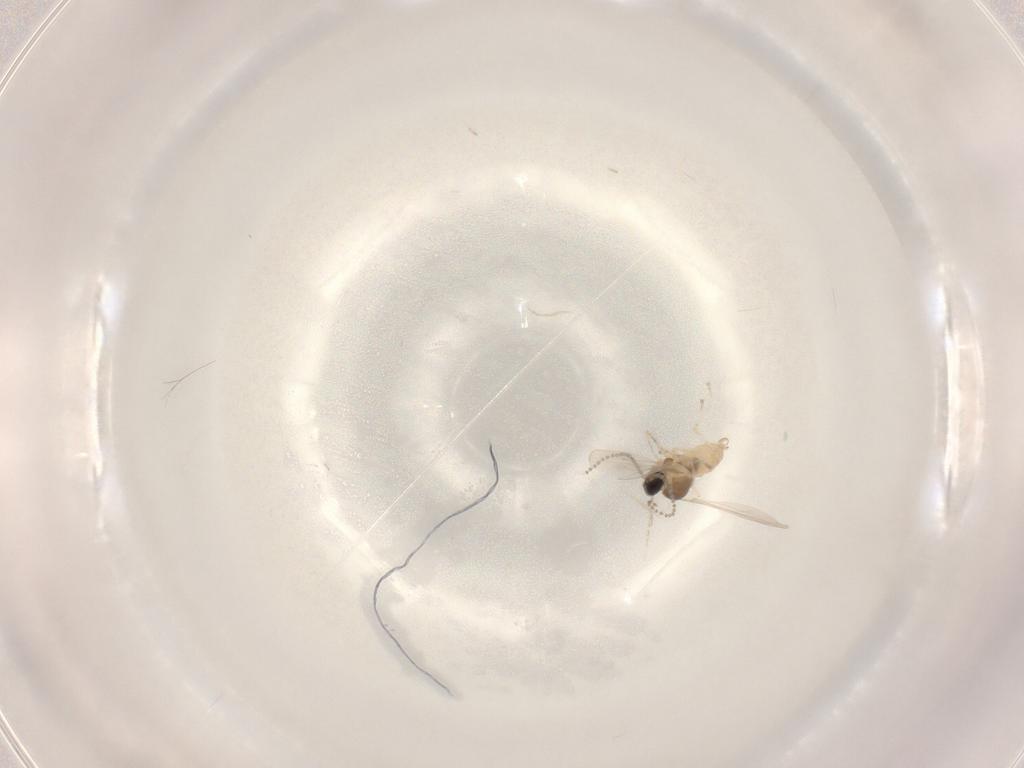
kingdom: Animalia
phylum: Arthropoda
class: Insecta
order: Diptera
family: Cecidomyiidae
